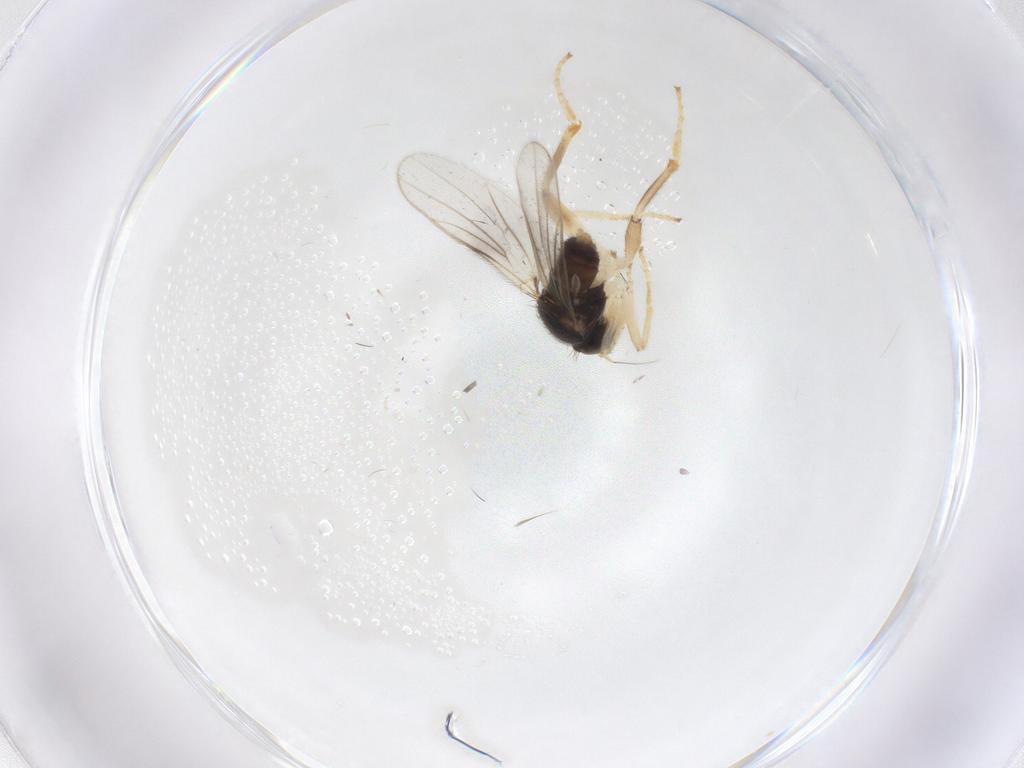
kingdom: Animalia
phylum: Arthropoda
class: Insecta
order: Diptera
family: Hybotidae
